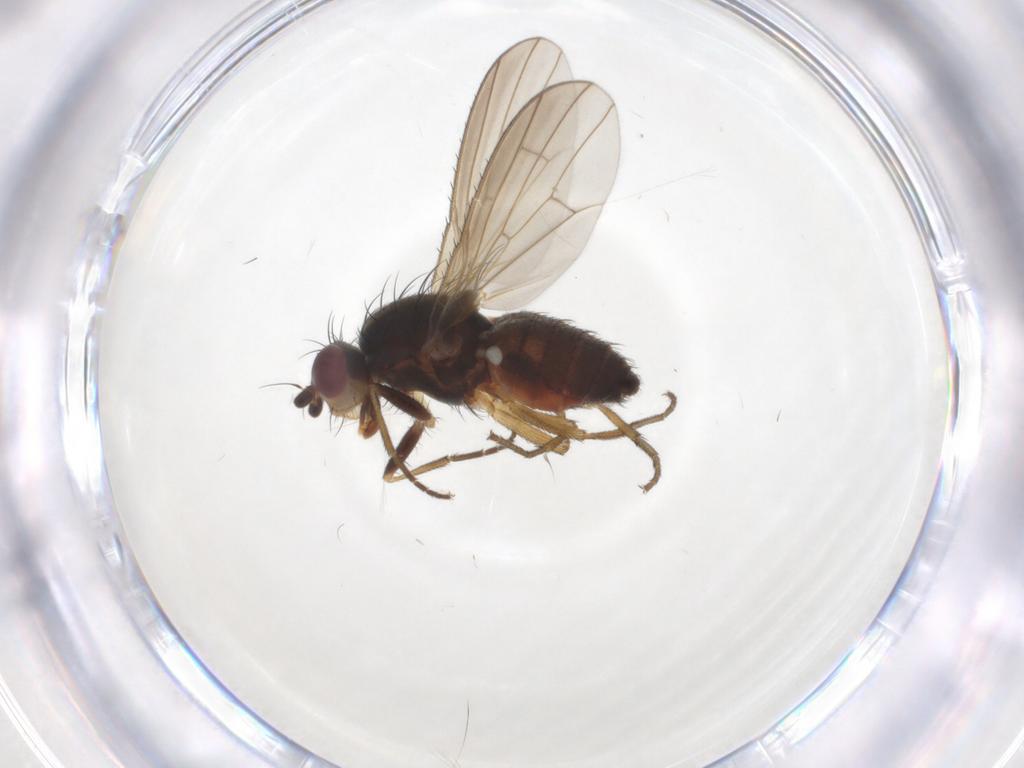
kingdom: Animalia
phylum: Arthropoda
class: Insecta
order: Diptera
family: Heleomyzidae
